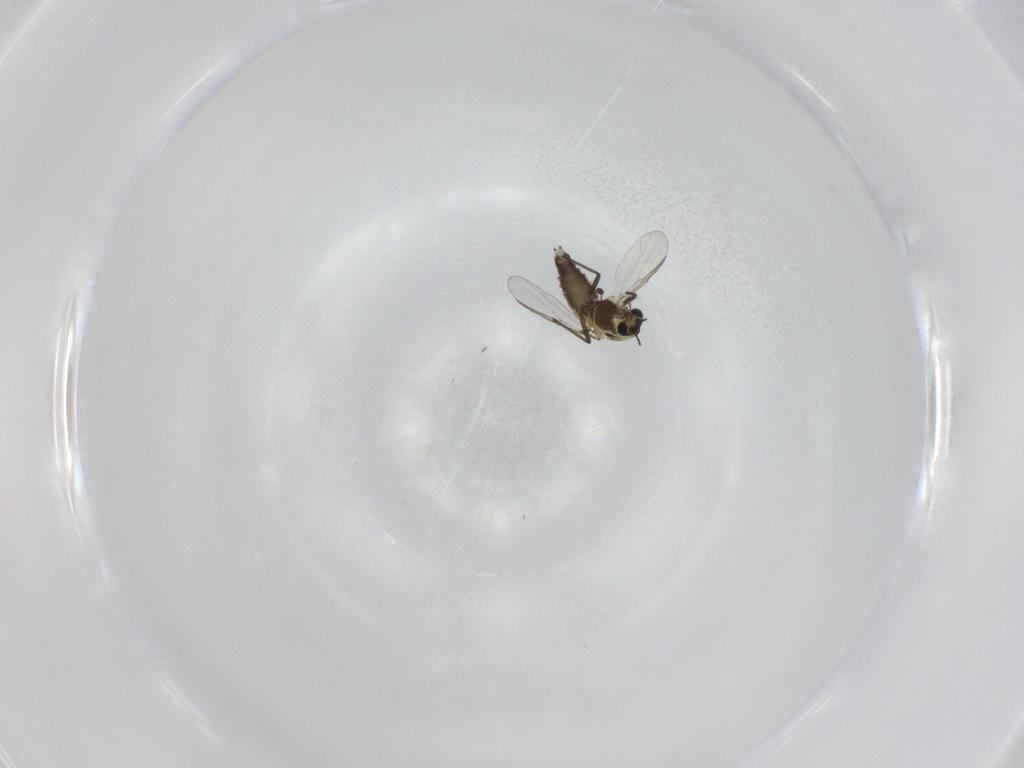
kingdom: Animalia
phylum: Arthropoda
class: Insecta
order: Diptera
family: Chironomidae
